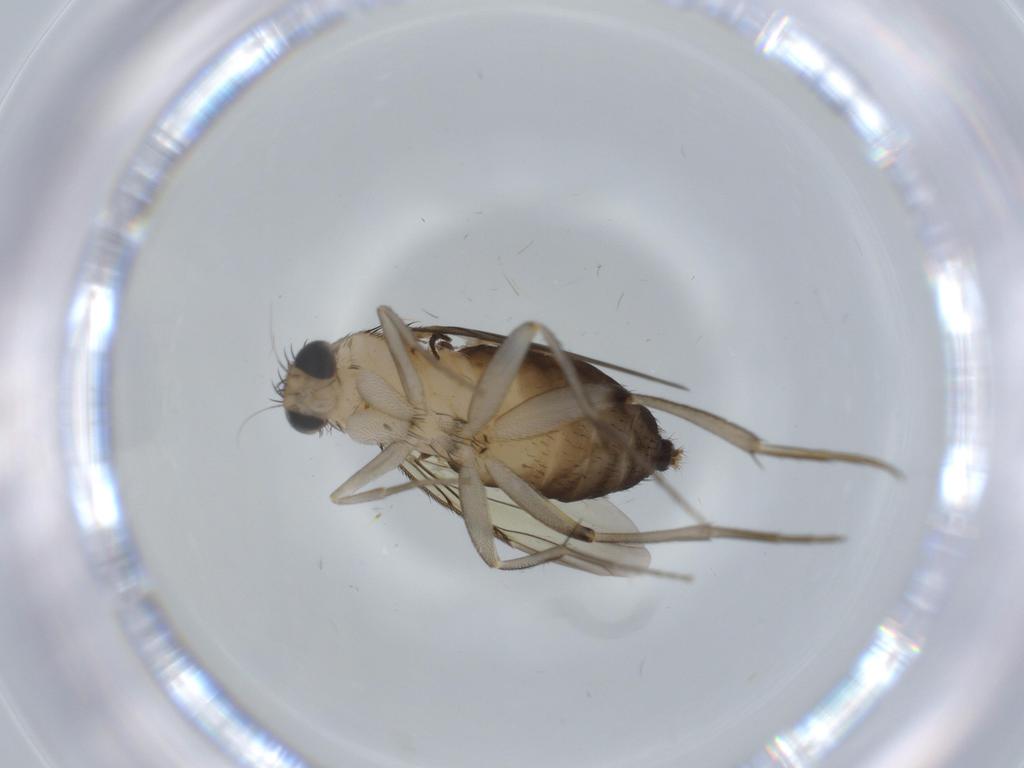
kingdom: Animalia
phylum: Arthropoda
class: Insecta
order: Diptera
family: Phoridae
